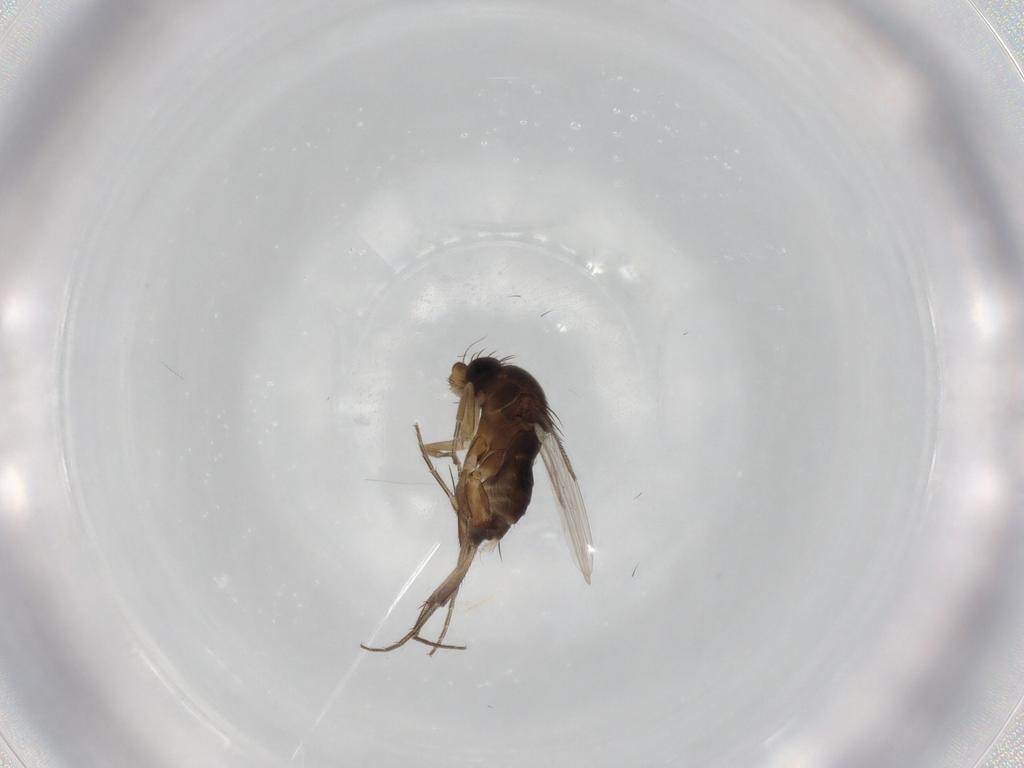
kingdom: Animalia
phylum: Arthropoda
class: Insecta
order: Diptera
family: Phoridae
